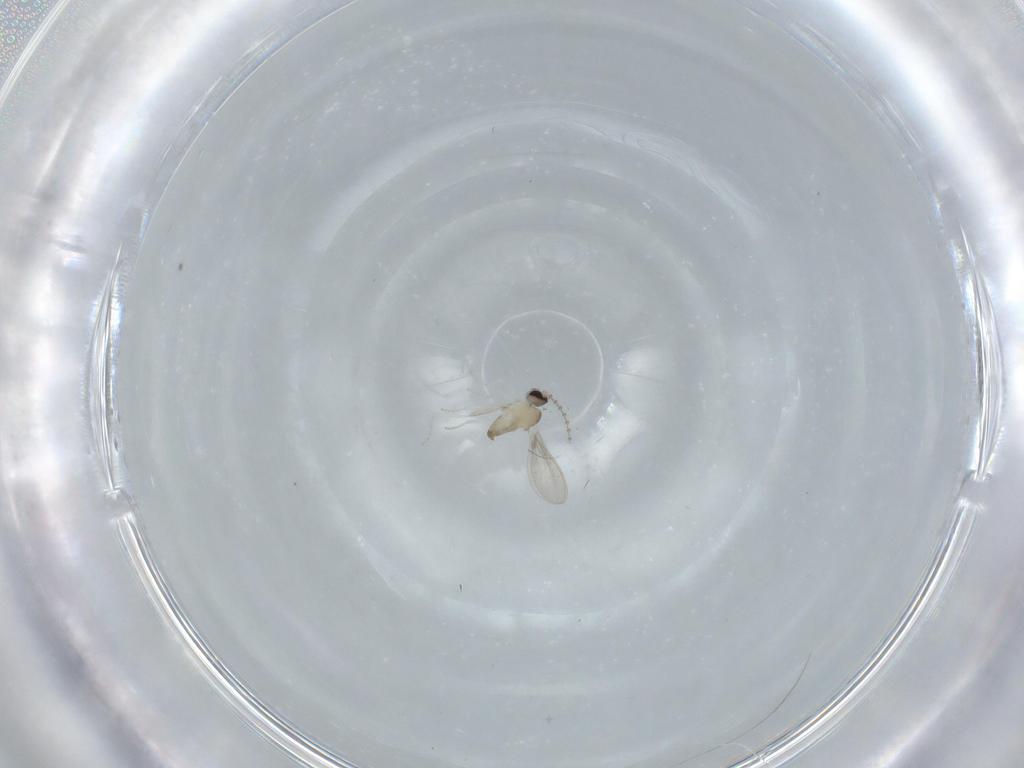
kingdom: Animalia
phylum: Arthropoda
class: Insecta
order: Diptera
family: Cecidomyiidae
